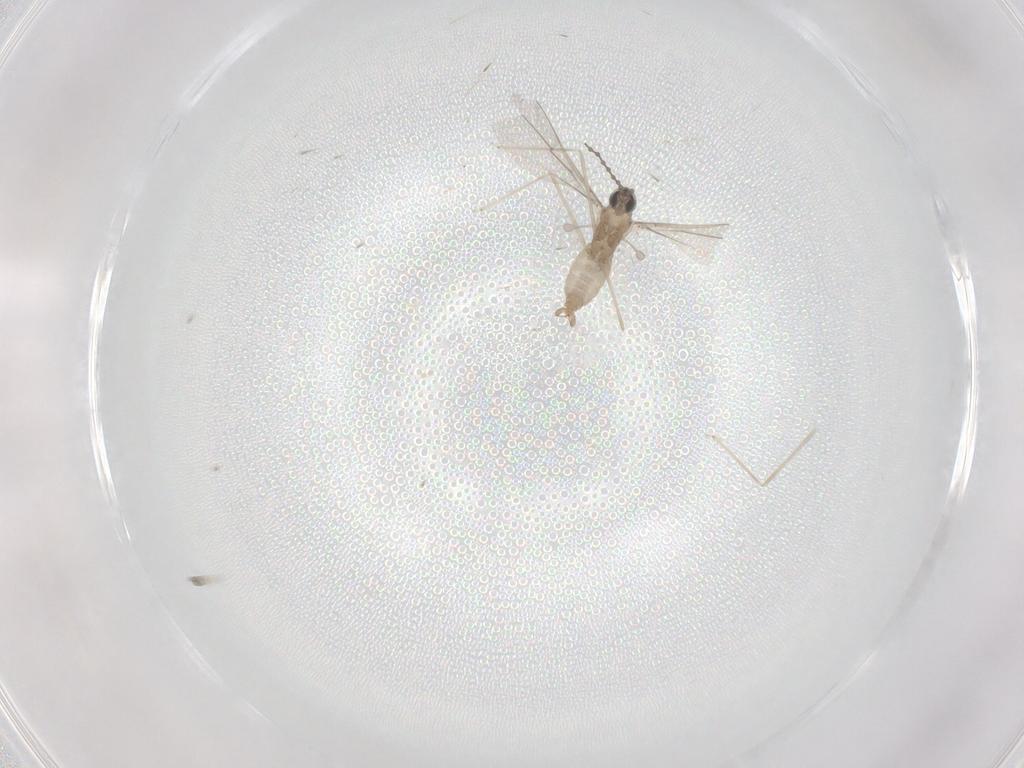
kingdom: Animalia
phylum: Arthropoda
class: Insecta
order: Diptera
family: Cecidomyiidae
